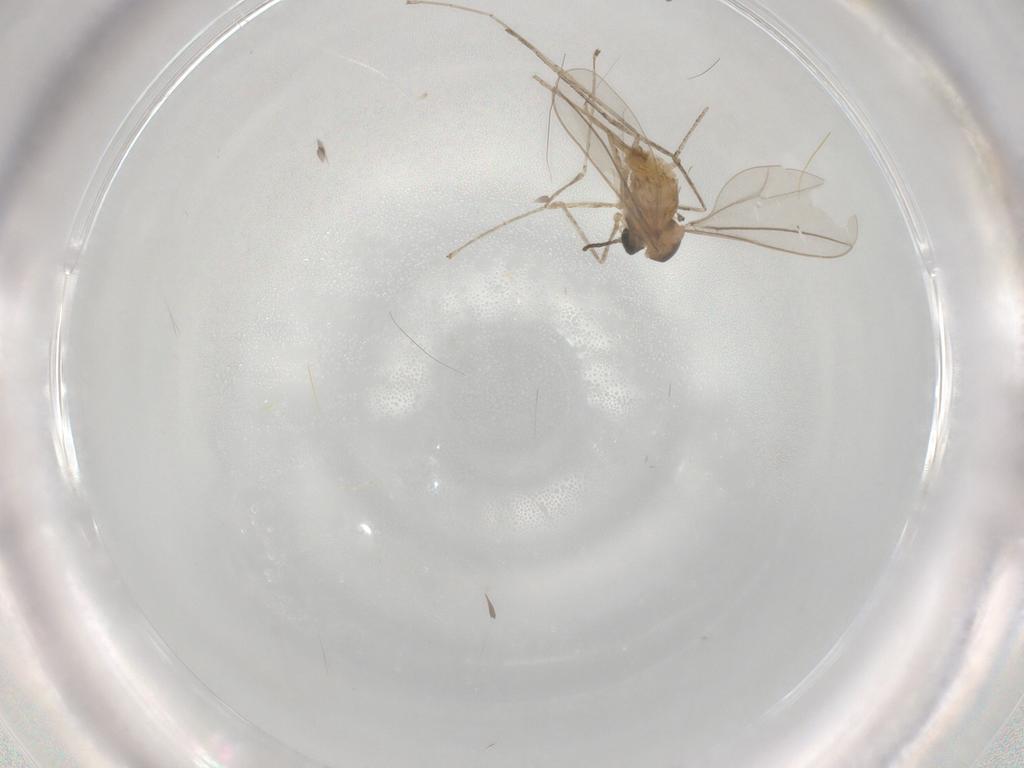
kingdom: Animalia
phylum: Arthropoda
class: Insecta
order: Diptera
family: Cecidomyiidae
